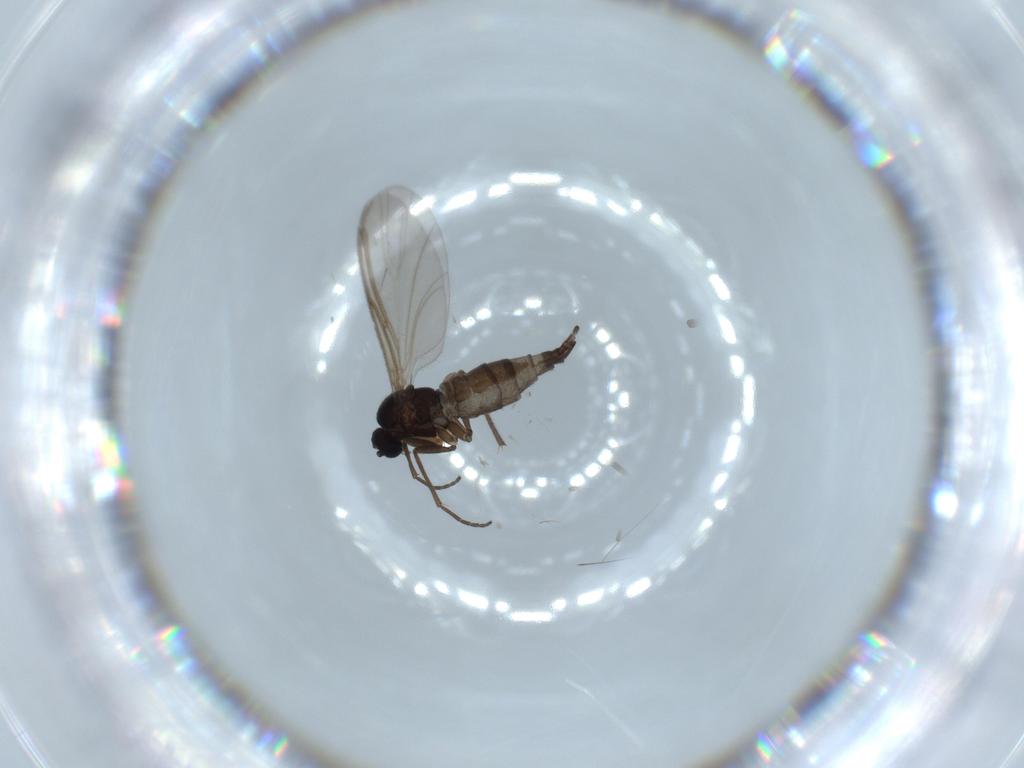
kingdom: Animalia
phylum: Arthropoda
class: Insecta
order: Diptera
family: Sciaridae
